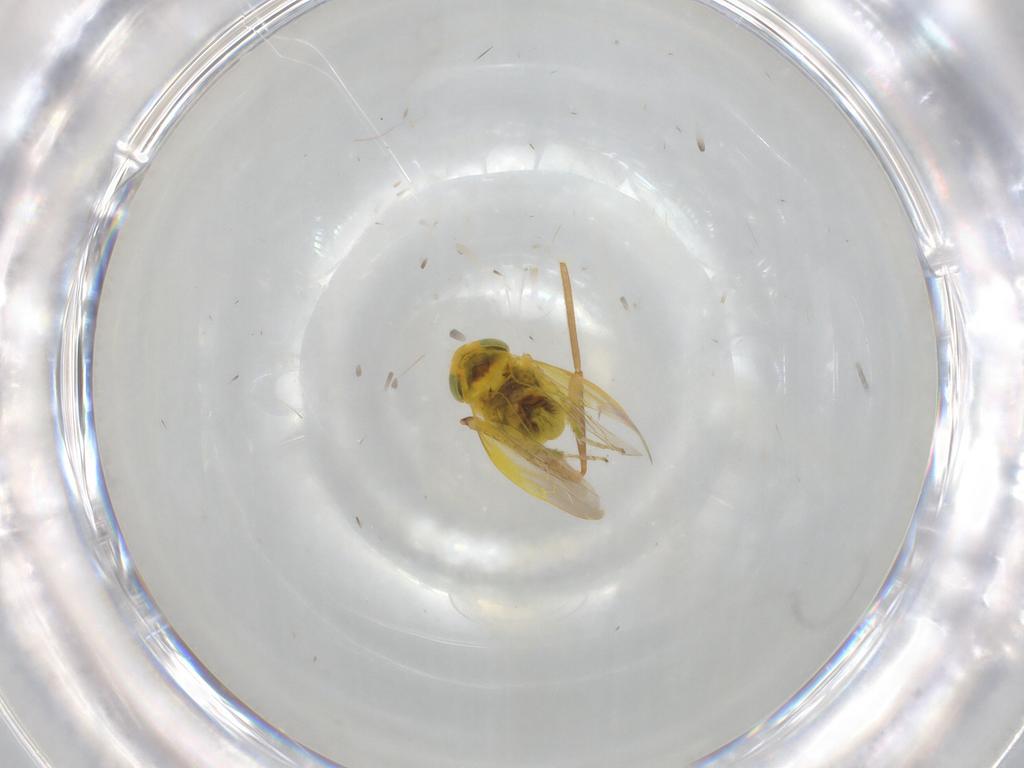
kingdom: Animalia
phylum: Arthropoda
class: Insecta
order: Hemiptera
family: Cicadellidae
